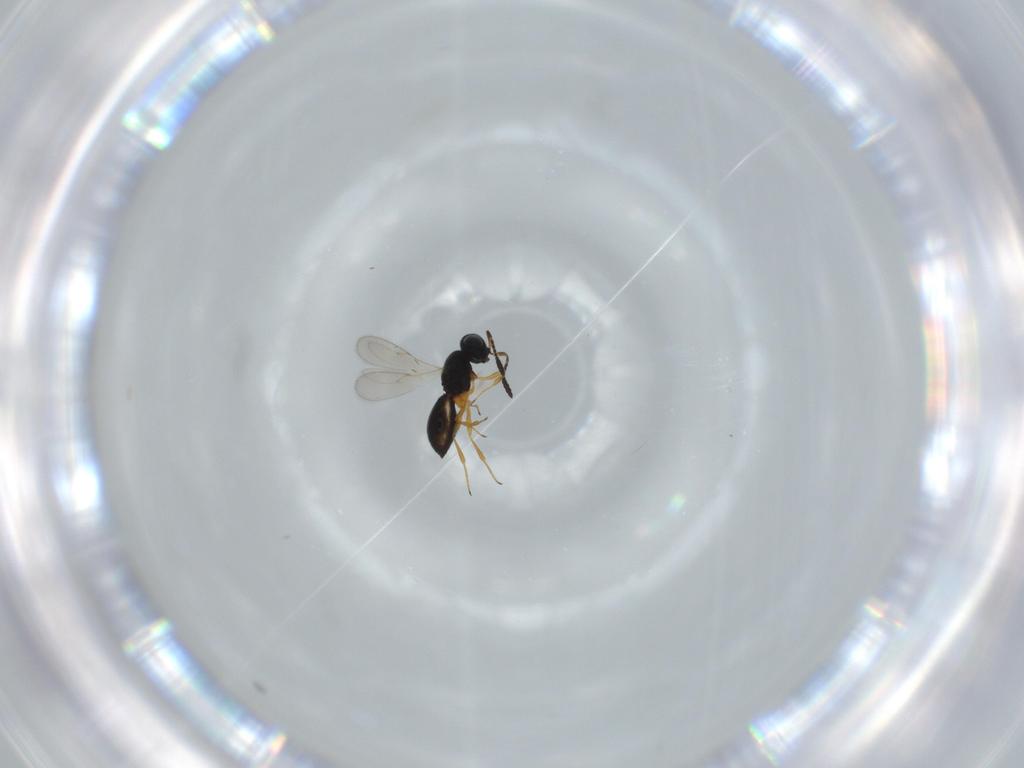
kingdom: Animalia
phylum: Arthropoda
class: Insecta
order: Hymenoptera
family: Scelionidae
